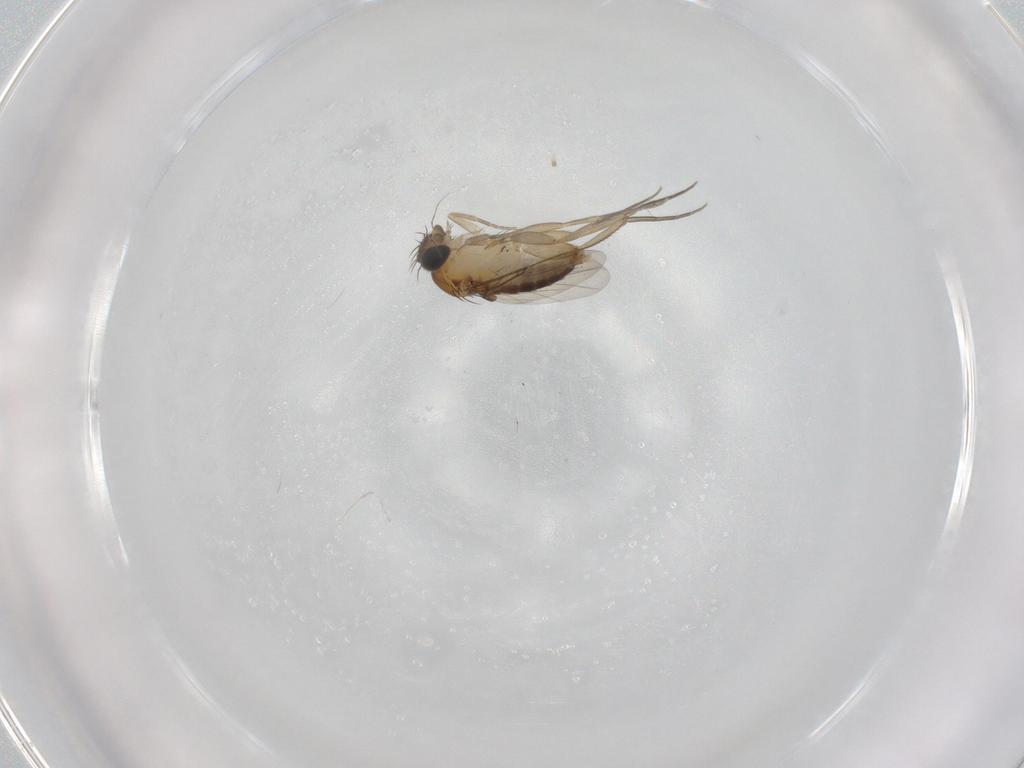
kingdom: Animalia
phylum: Arthropoda
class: Insecta
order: Diptera
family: Phoridae
